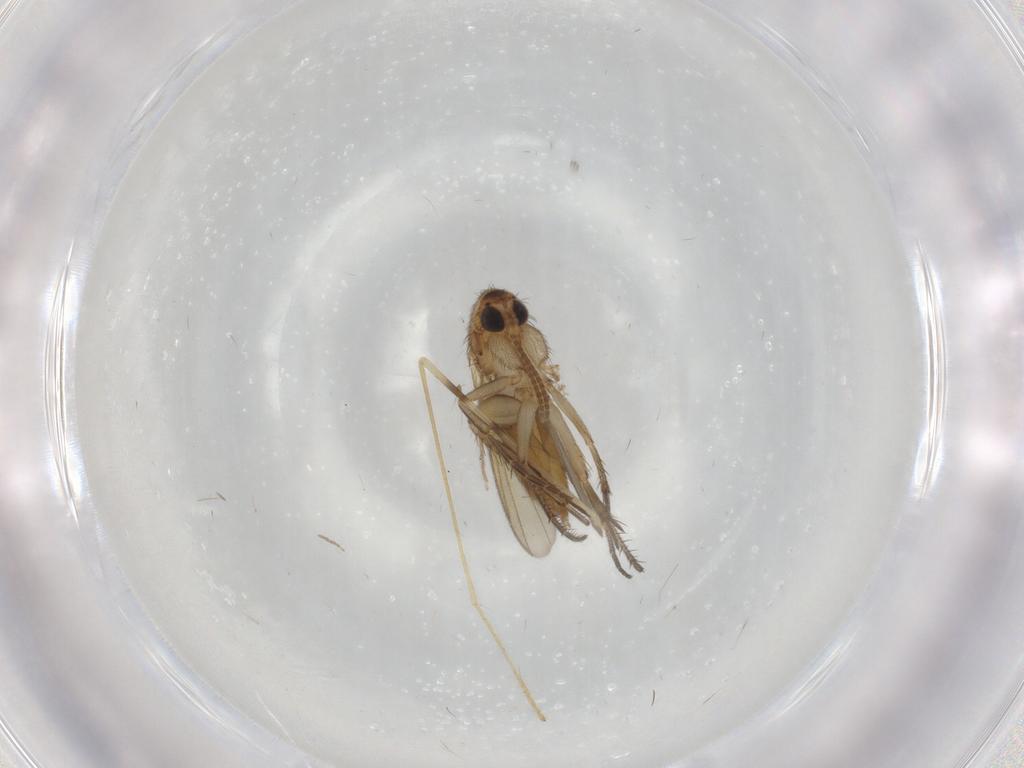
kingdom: Animalia
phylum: Arthropoda
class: Insecta
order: Diptera
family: Mycetophilidae
